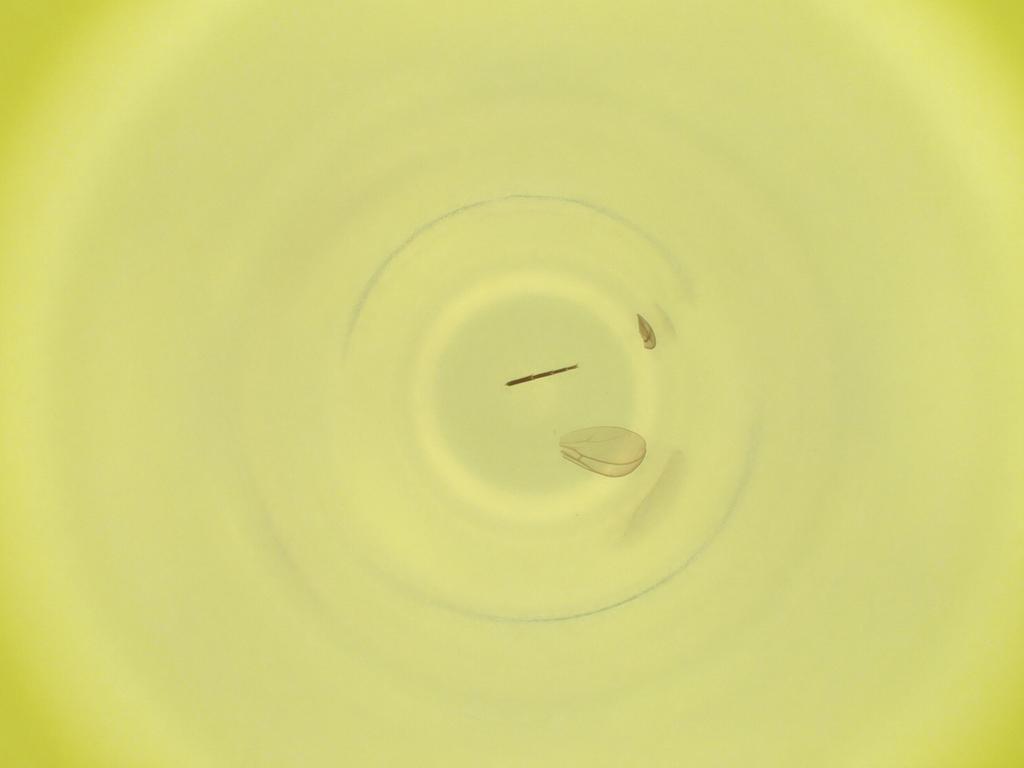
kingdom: Animalia
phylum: Arthropoda
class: Insecta
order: Diptera
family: Cecidomyiidae
